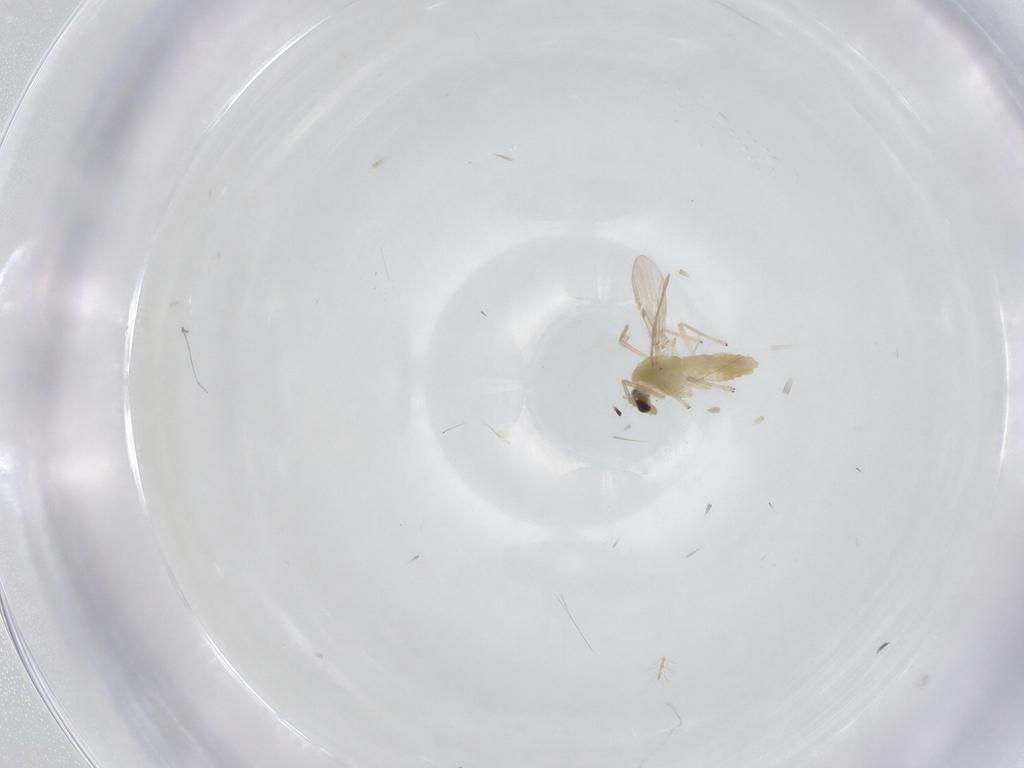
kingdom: Animalia
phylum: Arthropoda
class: Insecta
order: Diptera
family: Chironomidae
